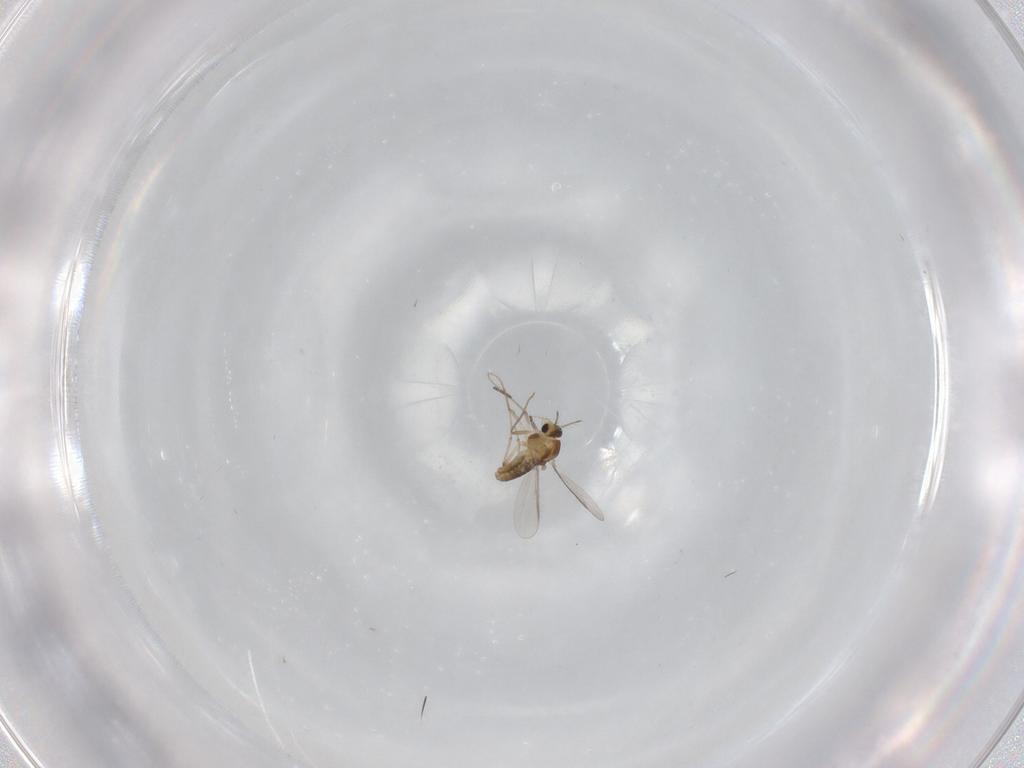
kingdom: Animalia
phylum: Arthropoda
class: Insecta
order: Diptera
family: Chironomidae
